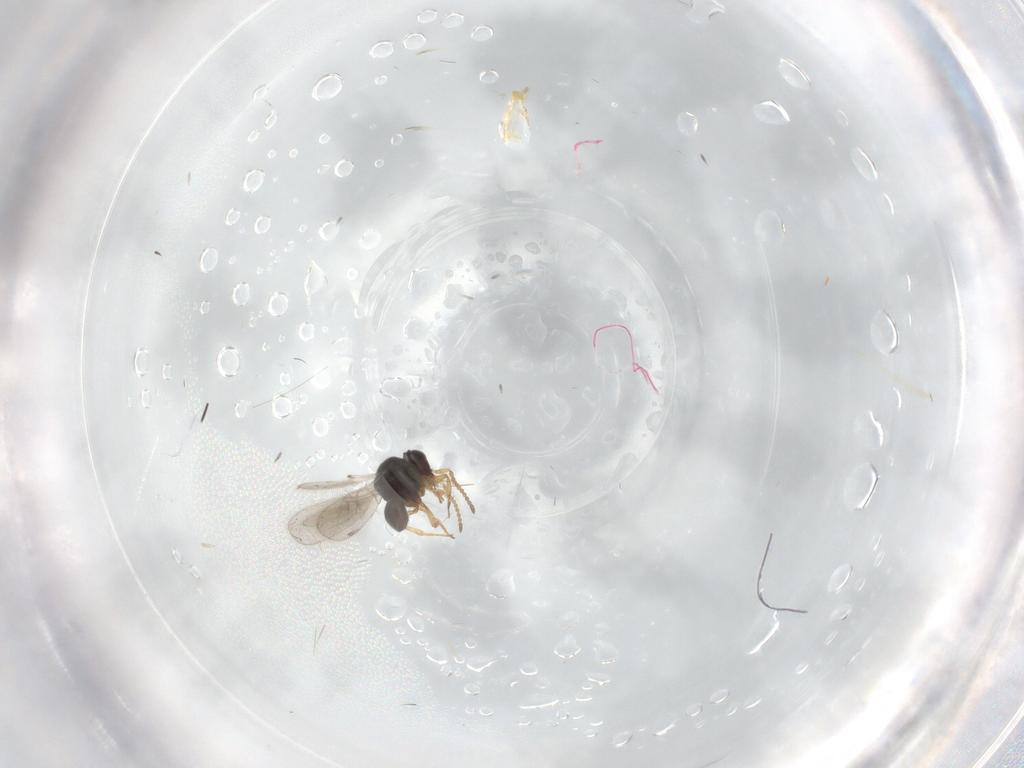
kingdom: Animalia
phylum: Arthropoda
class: Insecta
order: Hymenoptera
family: Scelionidae
